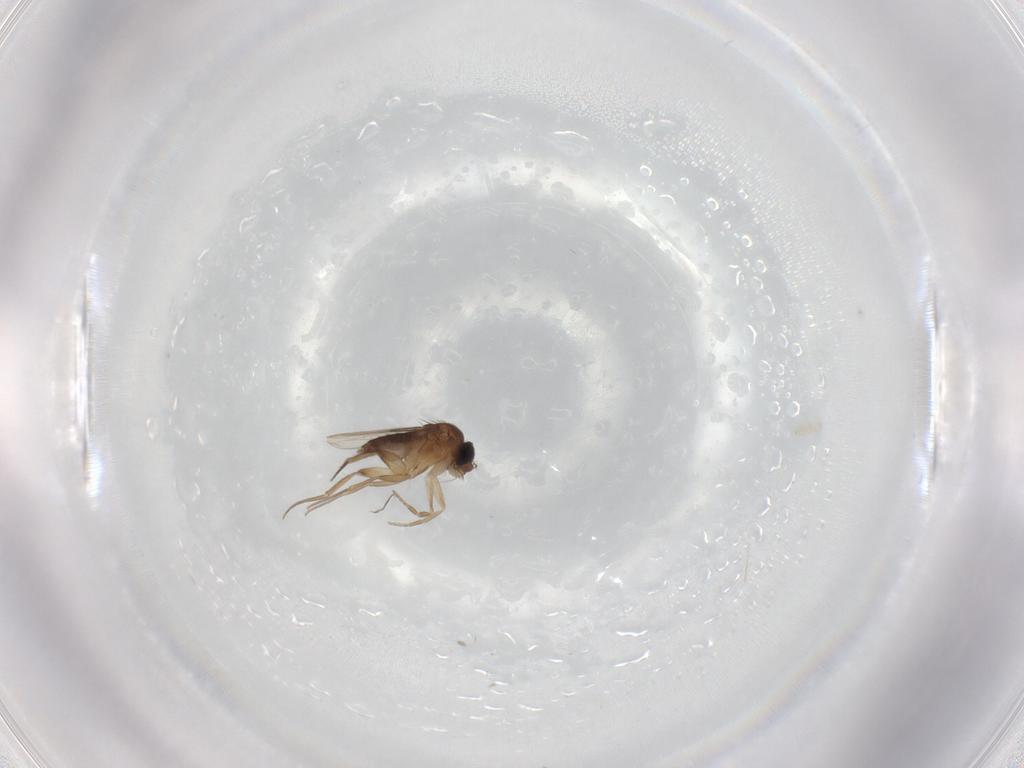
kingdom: Animalia
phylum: Arthropoda
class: Insecta
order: Diptera
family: Phoridae
